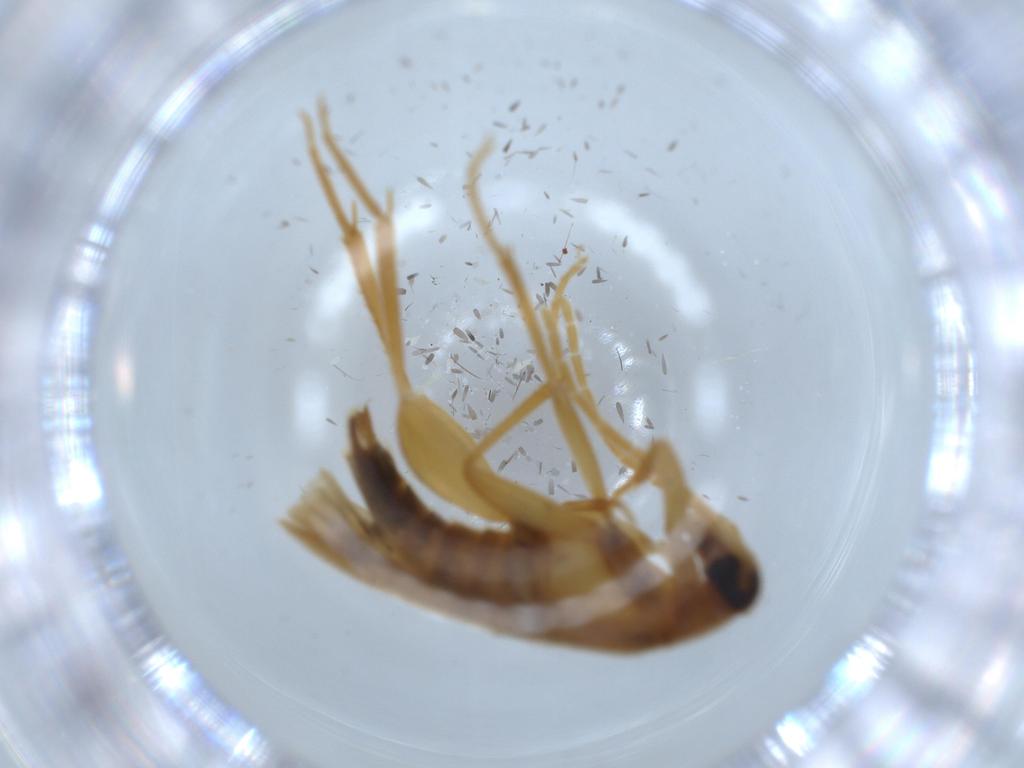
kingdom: Animalia
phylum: Arthropoda
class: Insecta
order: Coleoptera
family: Scraptiidae
